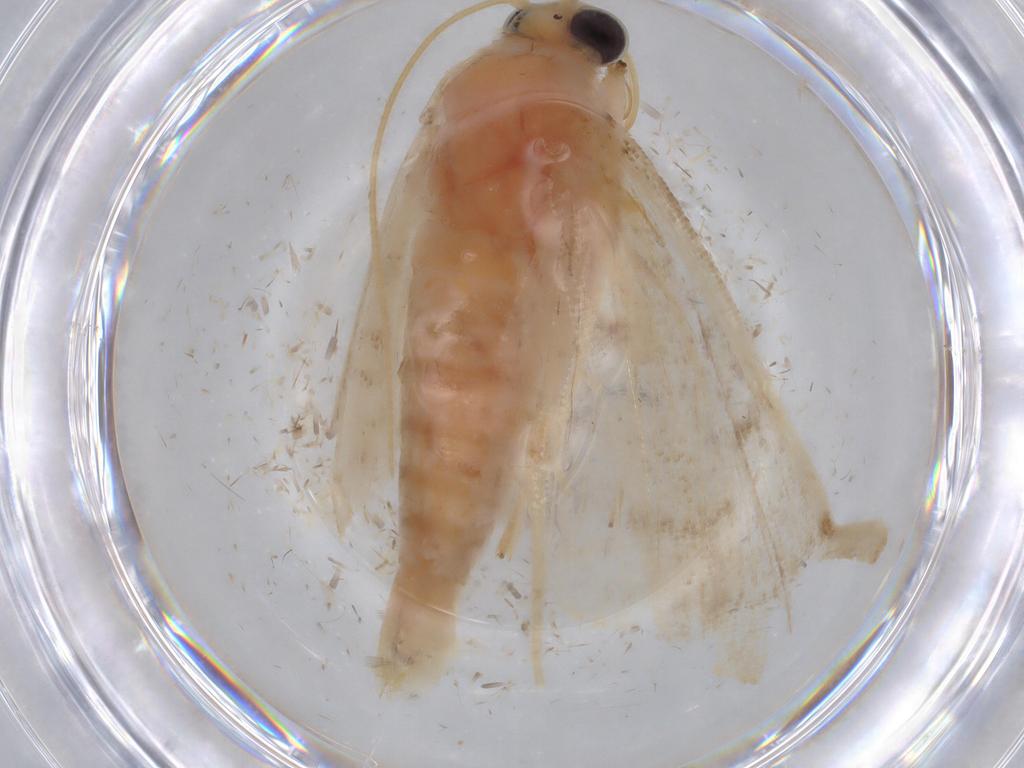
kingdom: Animalia
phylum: Arthropoda
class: Insecta
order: Lepidoptera
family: Crambidae
